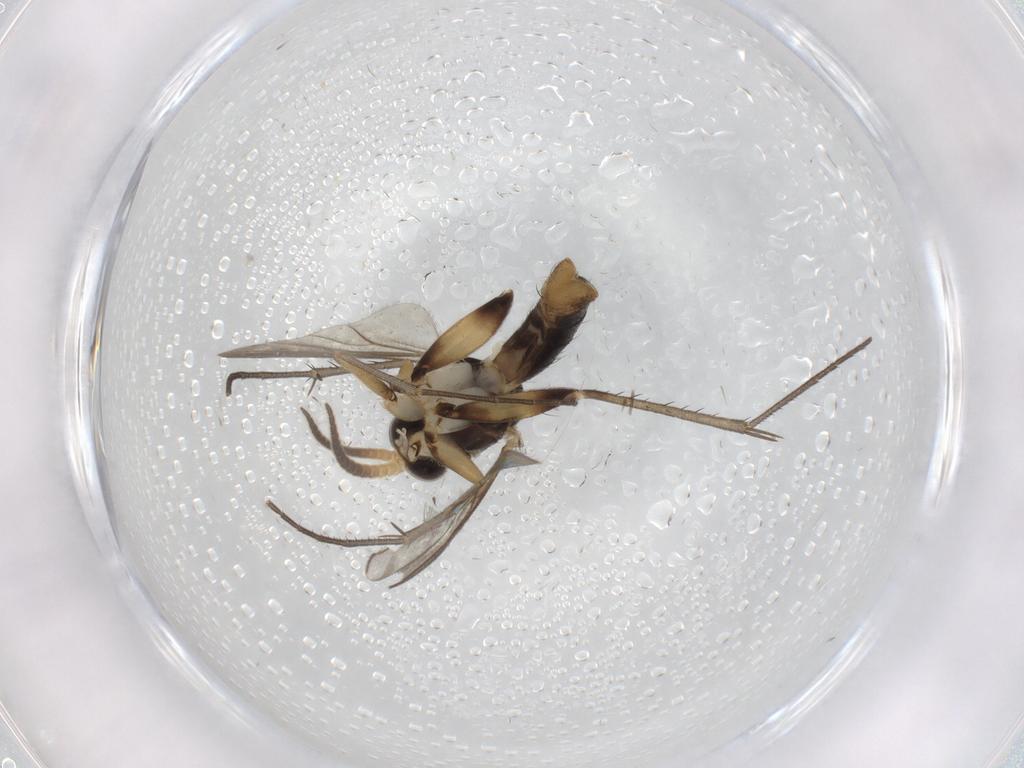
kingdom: Animalia
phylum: Arthropoda
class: Insecta
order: Diptera
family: Mycetophilidae
